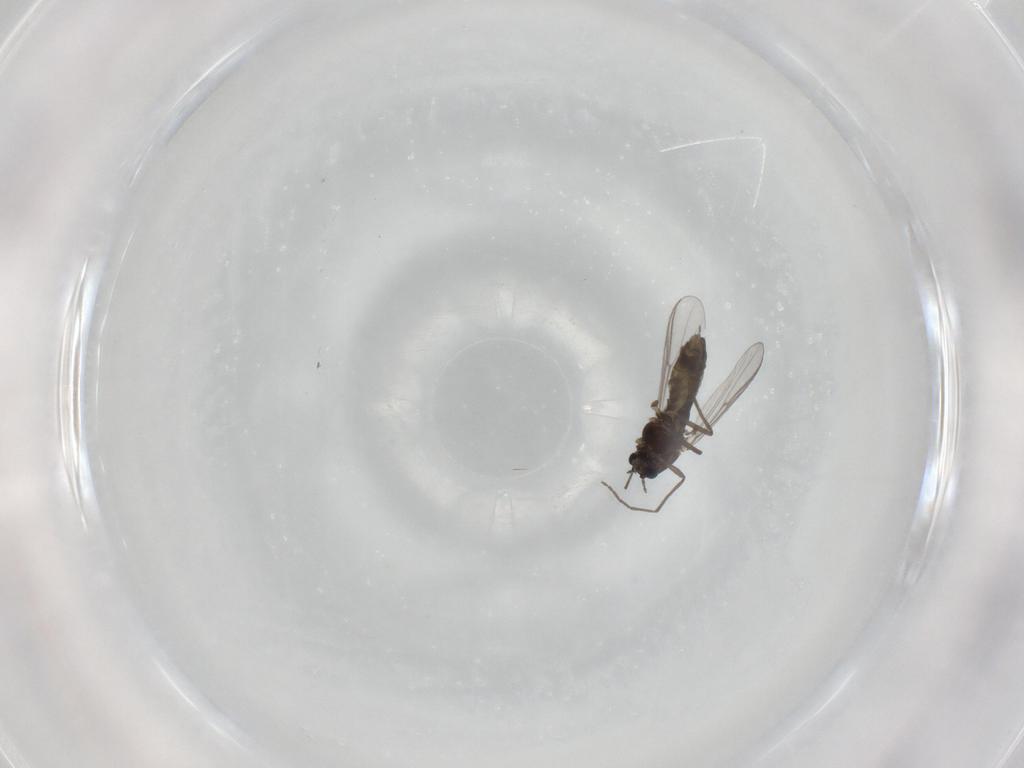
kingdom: Animalia
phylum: Arthropoda
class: Insecta
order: Diptera
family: Chironomidae
